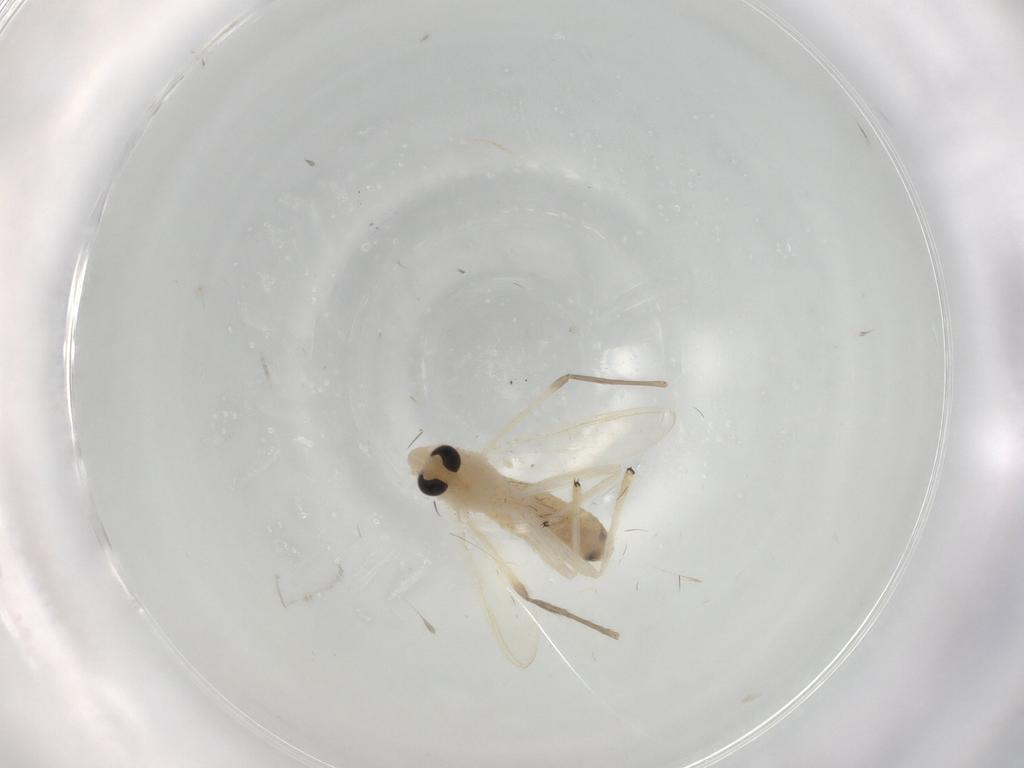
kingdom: Animalia
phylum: Arthropoda
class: Insecta
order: Diptera
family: Chironomidae
